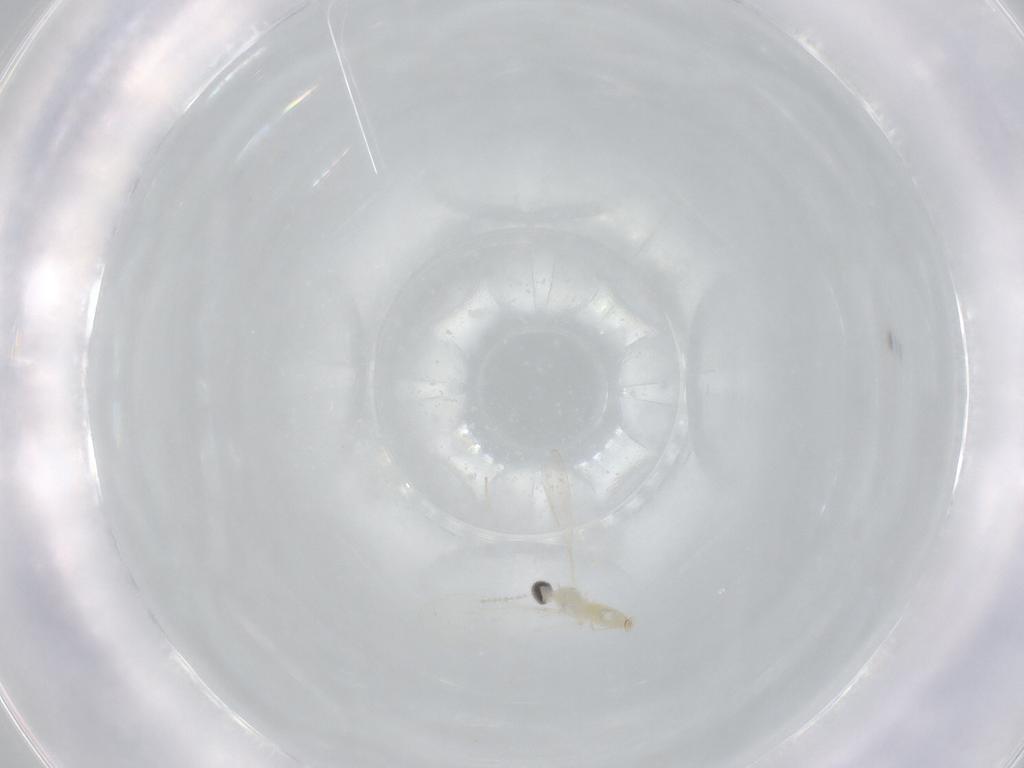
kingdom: Animalia
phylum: Arthropoda
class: Insecta
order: Diptera
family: Cecidomyiidae
